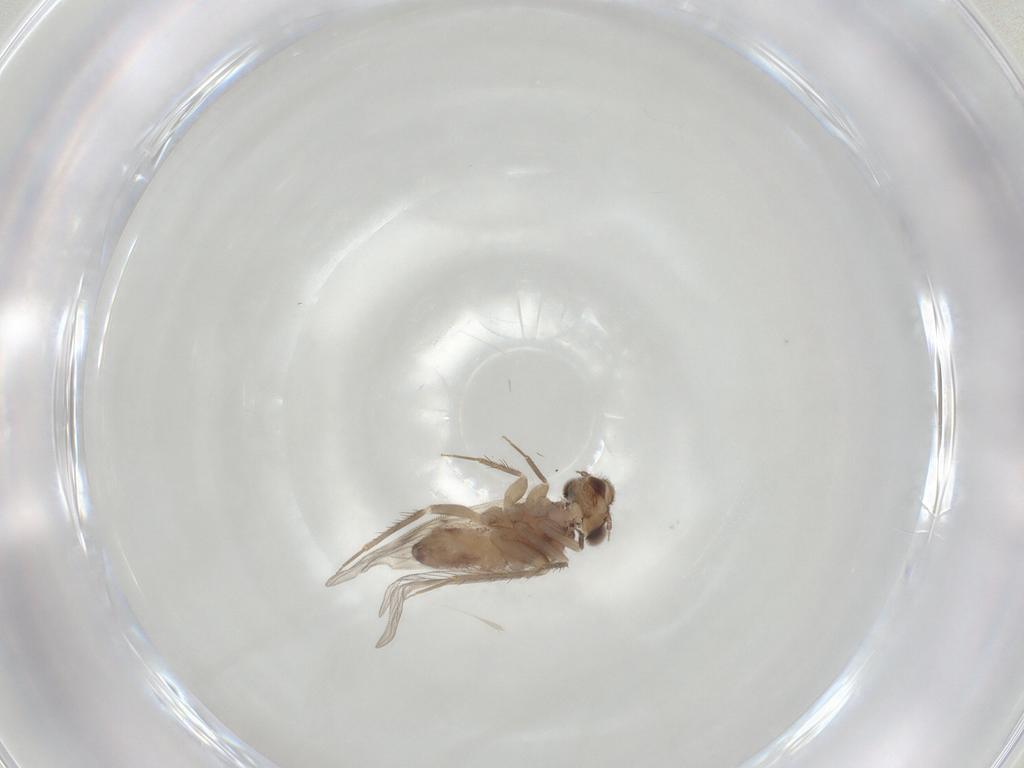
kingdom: Animalia
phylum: Arthropoda
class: Insecta
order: Psocodea
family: Lepidopsocidae
